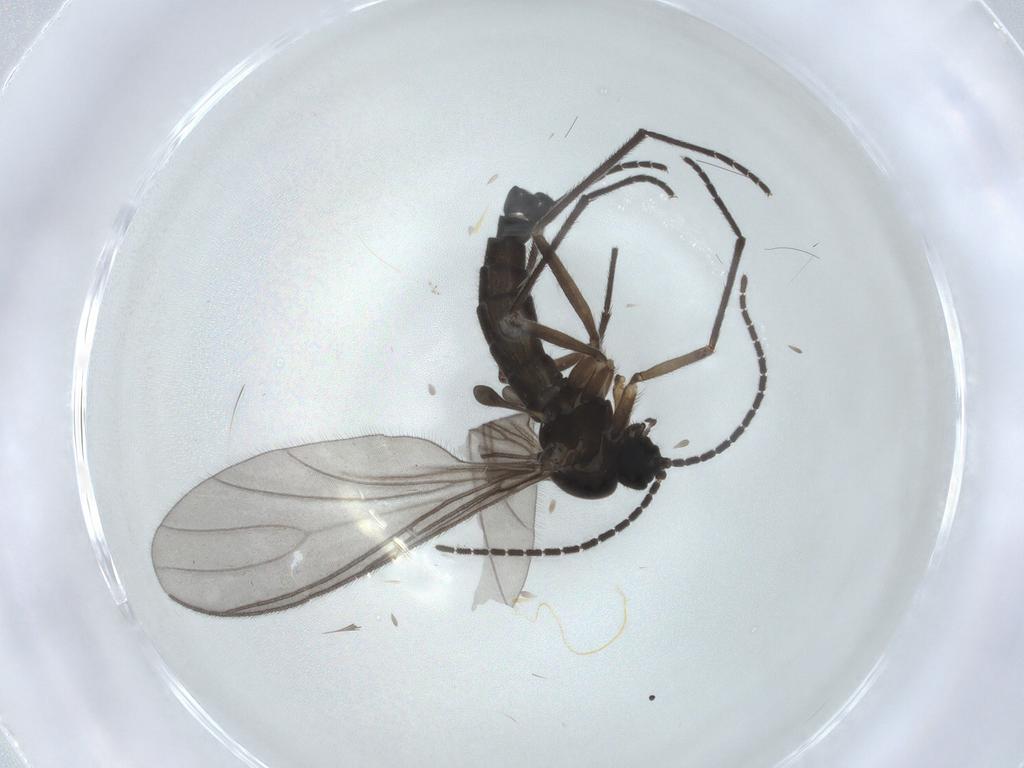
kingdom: Animalia
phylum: Arthropoda
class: Insecta
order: Diptera
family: Sciaridae
